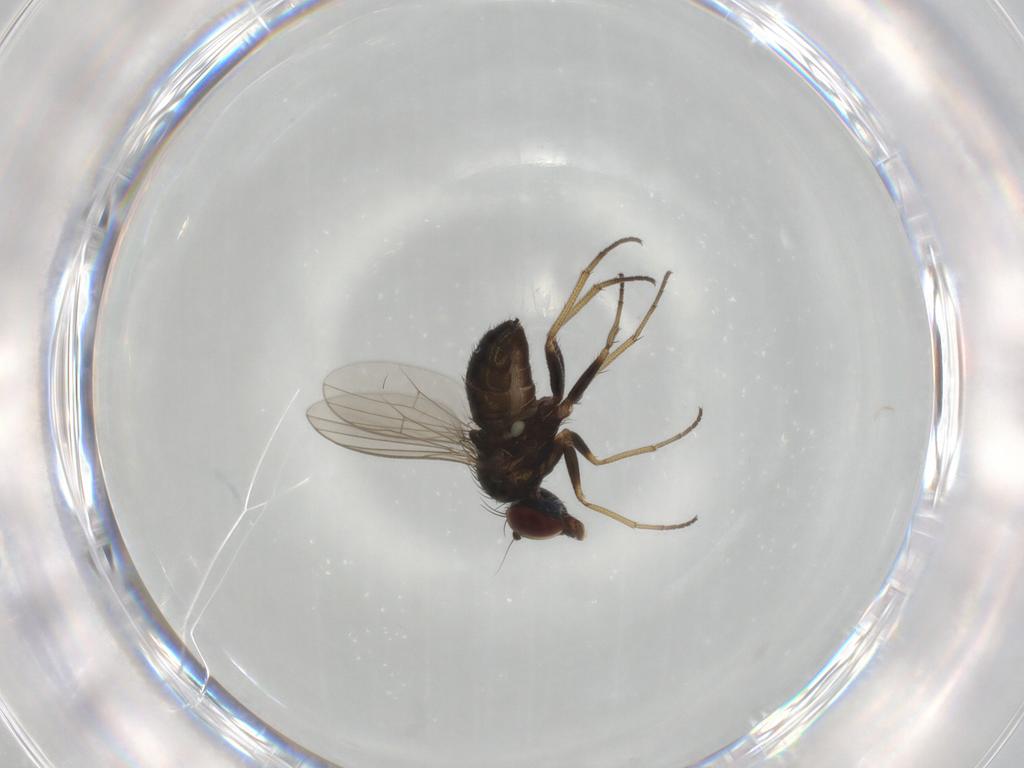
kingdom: Animalia
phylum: Arthropoda
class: Insecta
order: Diptera
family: Dolichopodidae
